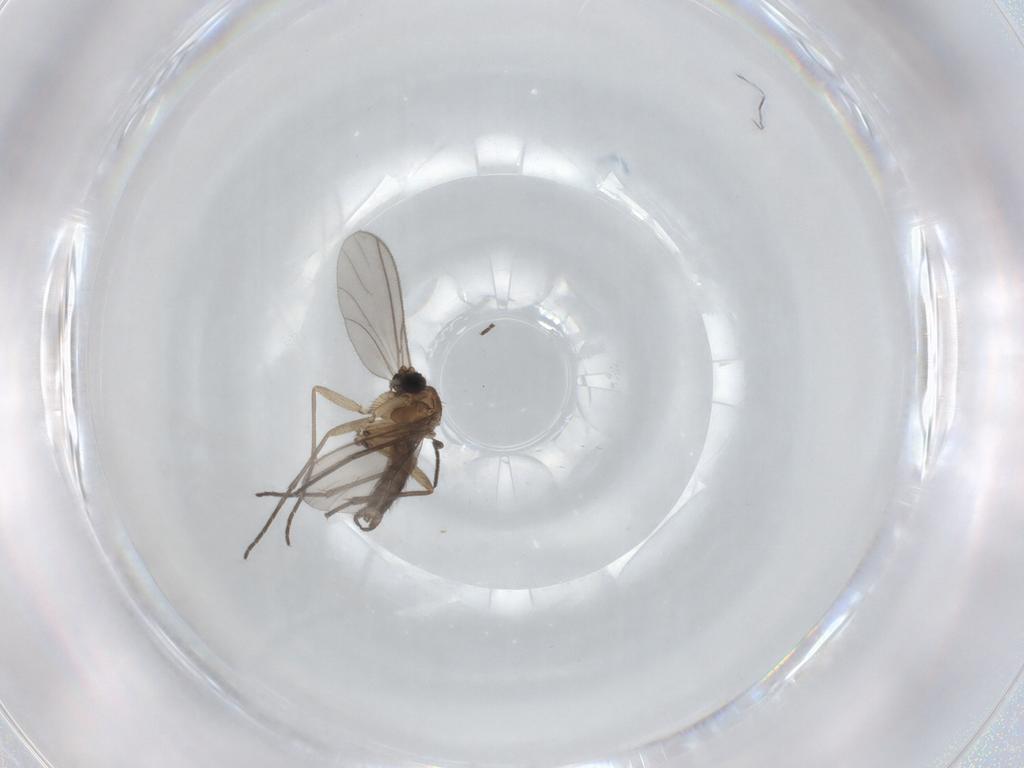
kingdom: Animalia
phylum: Arthropoda
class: Insecta
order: Diptera
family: Sciaridae
